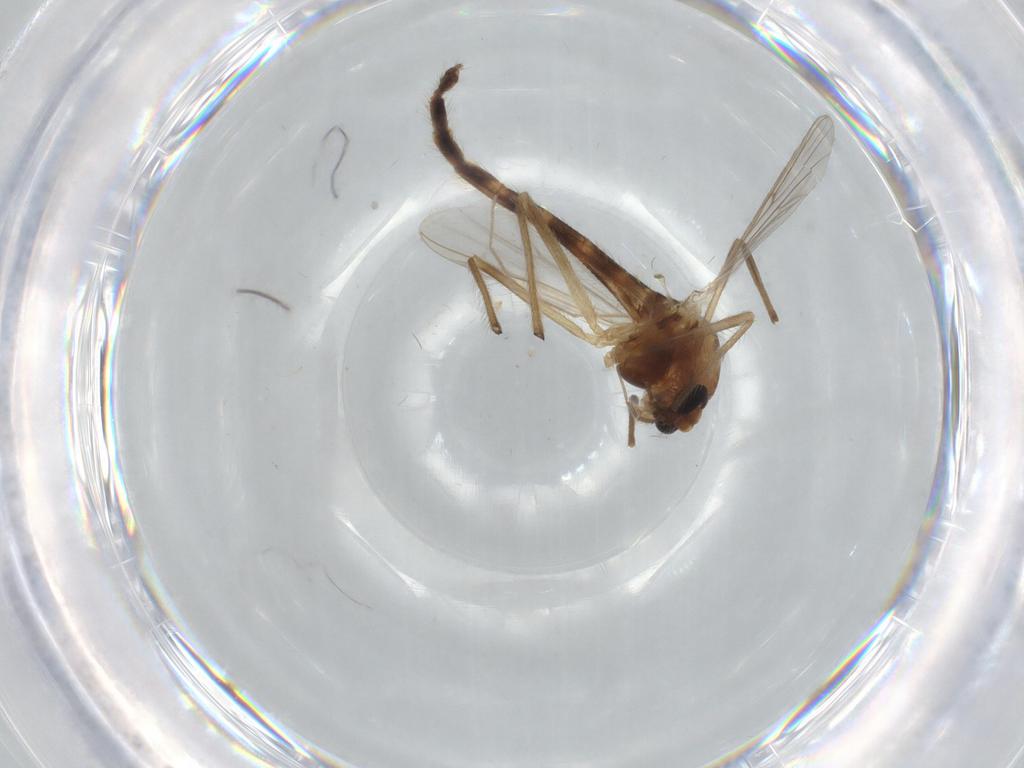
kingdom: Animalia
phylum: Arthropoda
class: Insecta
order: Diptera
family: Chironomidae
